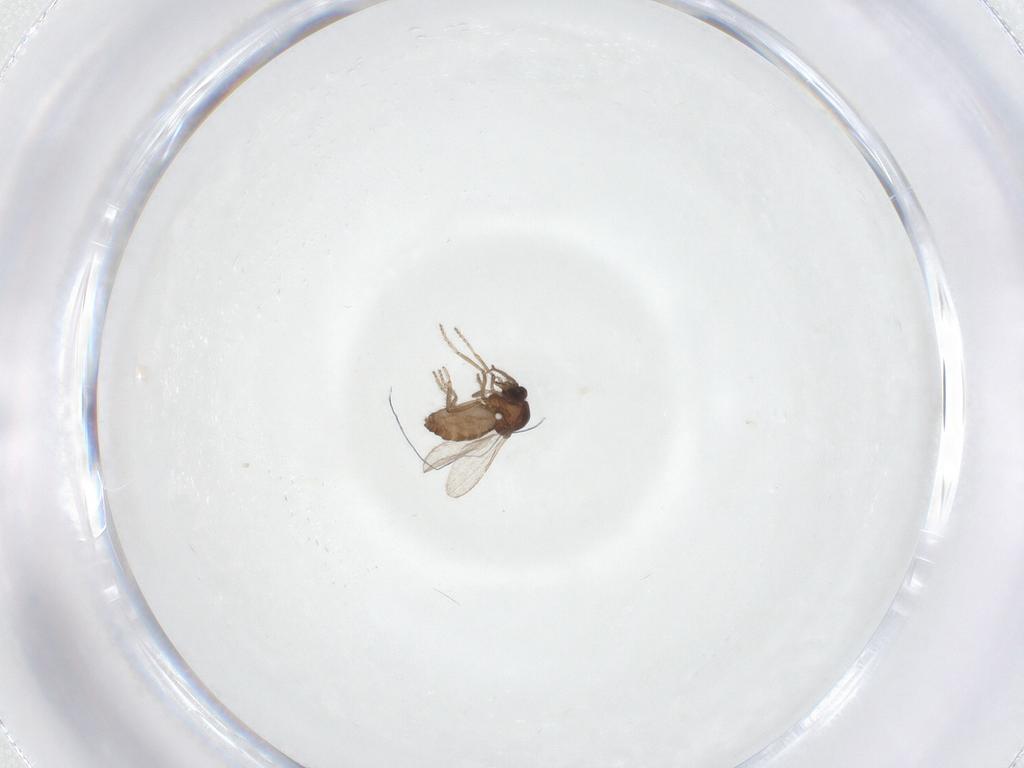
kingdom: Animalia
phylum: Arthropoda
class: Insecta
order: Diptera
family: Ceratopogonidae
